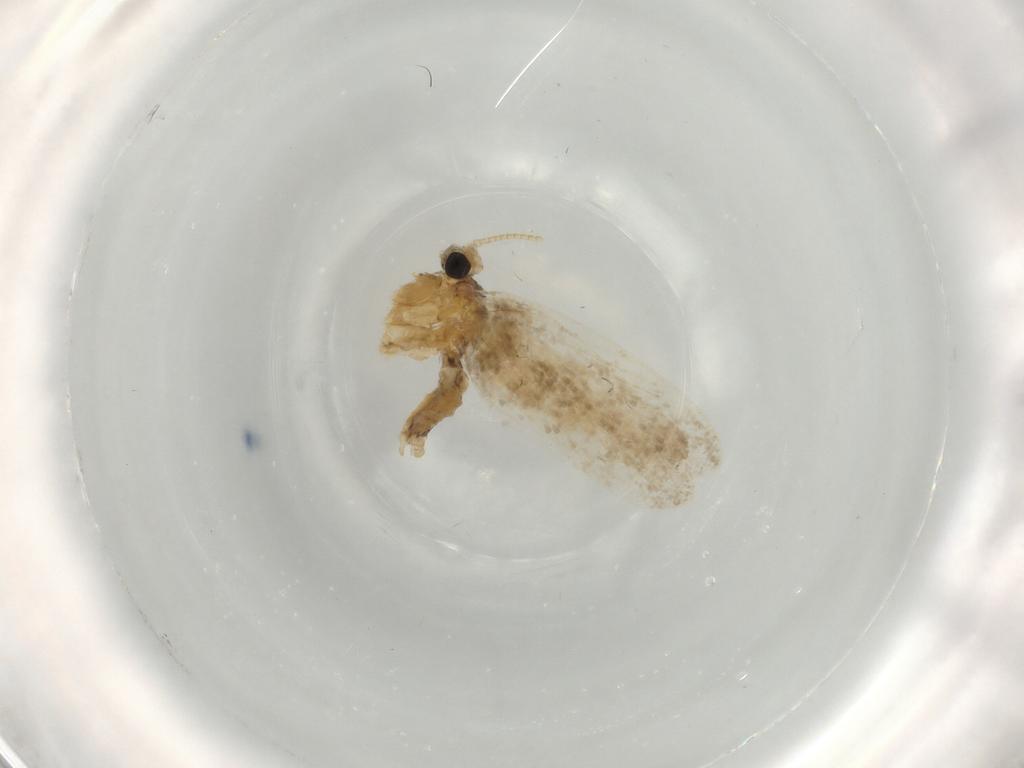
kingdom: Animalia
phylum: Arthropoda
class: Insecta
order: Lepidoptera
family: Psychidae
